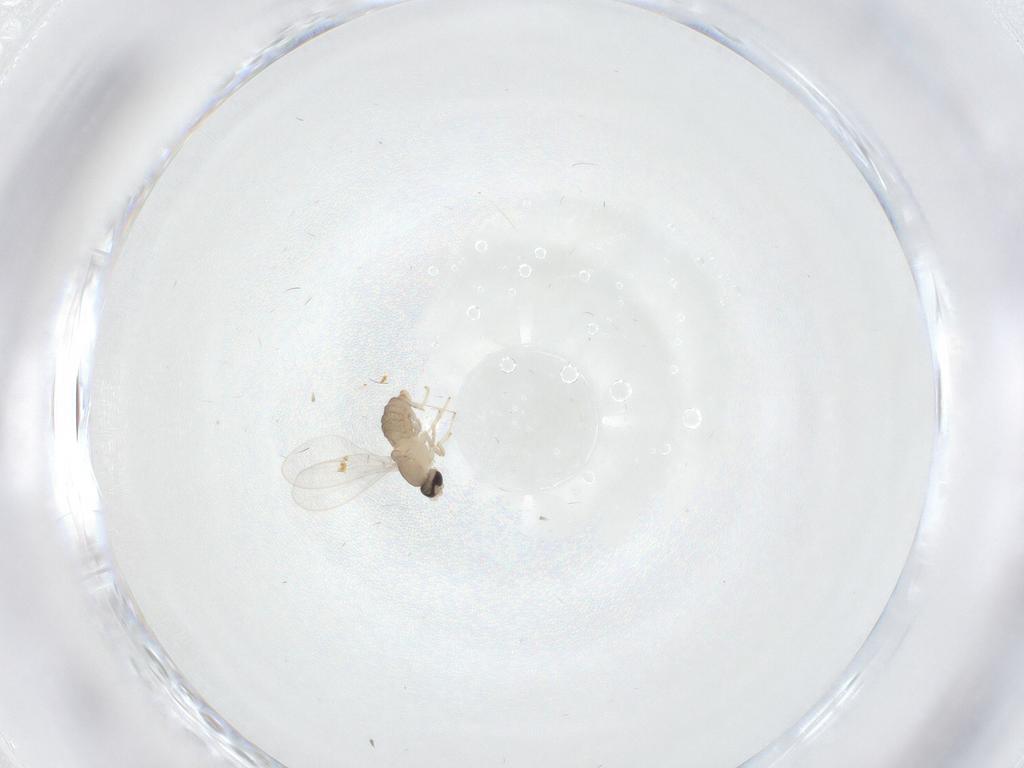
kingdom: Animalia
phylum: Arthropoda
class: Insecta
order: Diptera
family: Cecidomyiidae
